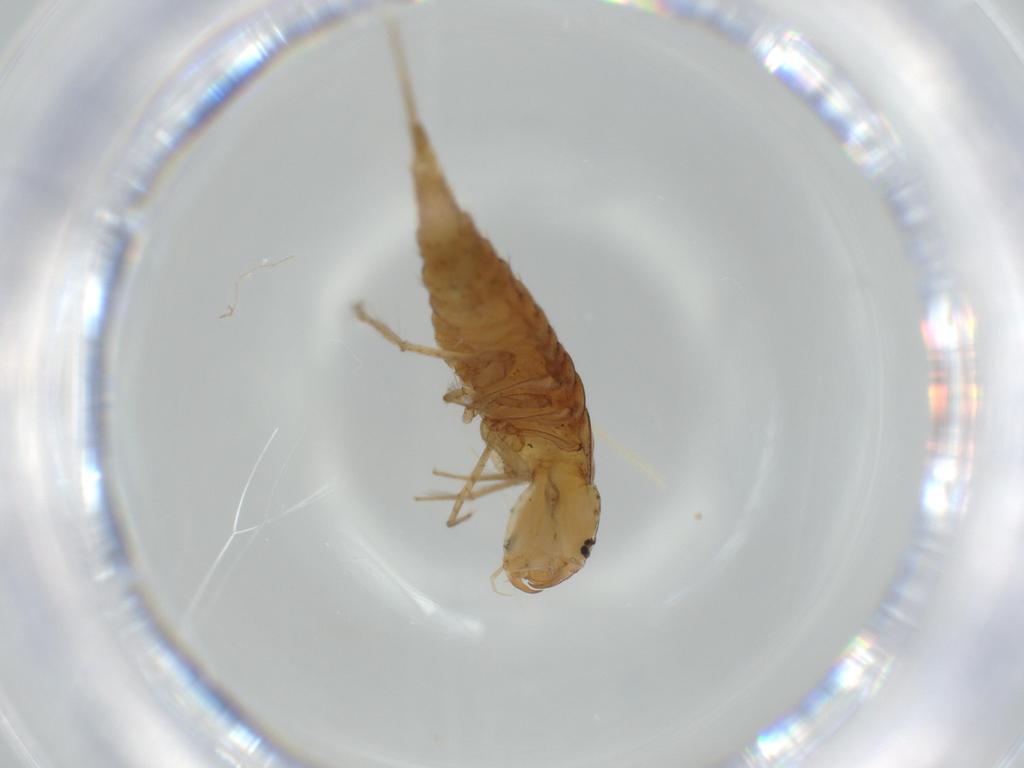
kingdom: Animalia
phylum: Arthropoda
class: Insecta
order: Coleoptera
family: Dytiscidae
